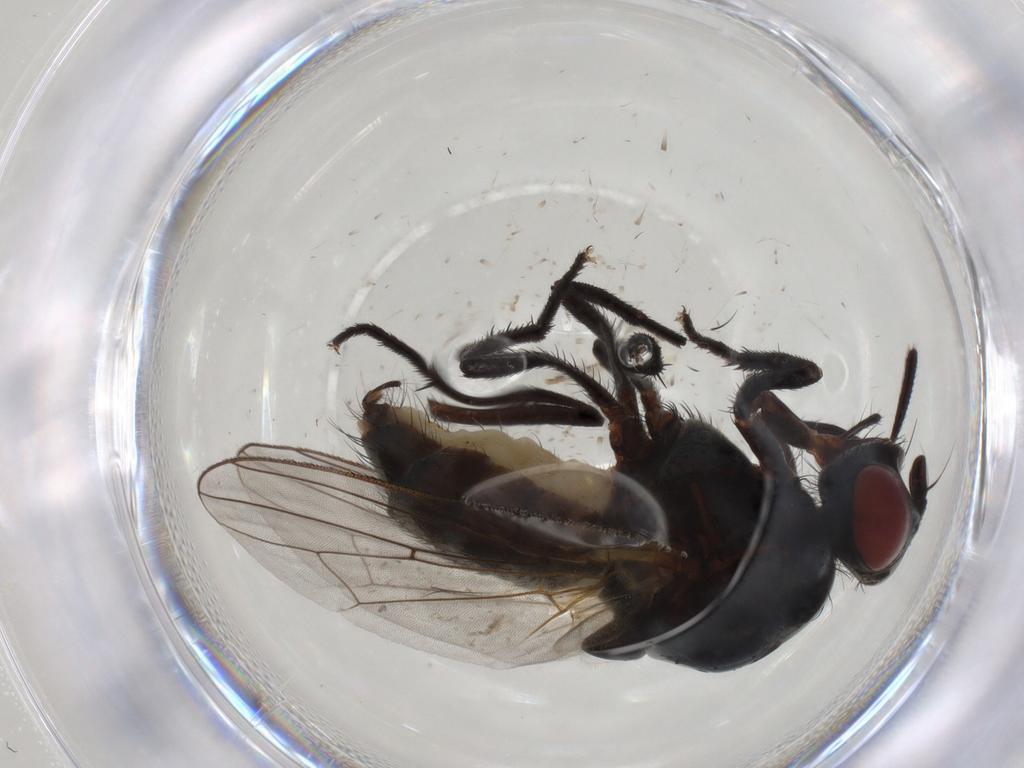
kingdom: Animalia
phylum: Arthropoda
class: Insecta
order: Diptera
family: Chloropidae
